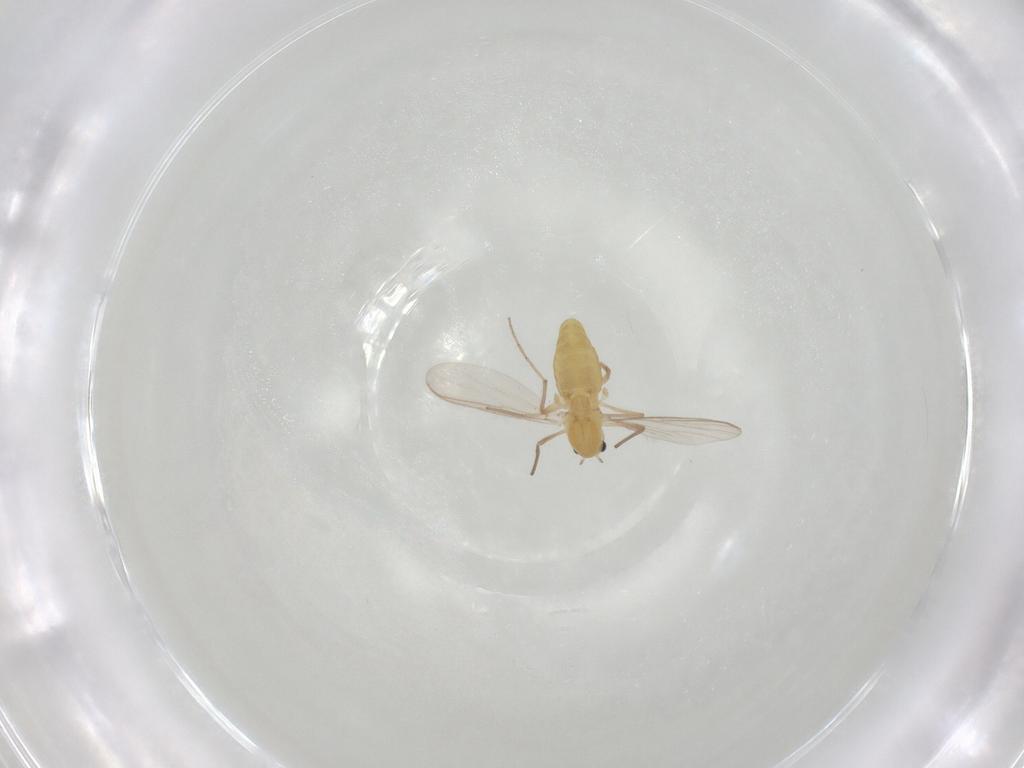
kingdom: Animalia
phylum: Arthropoda
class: Insecta
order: Diptera
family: Chironomidae
